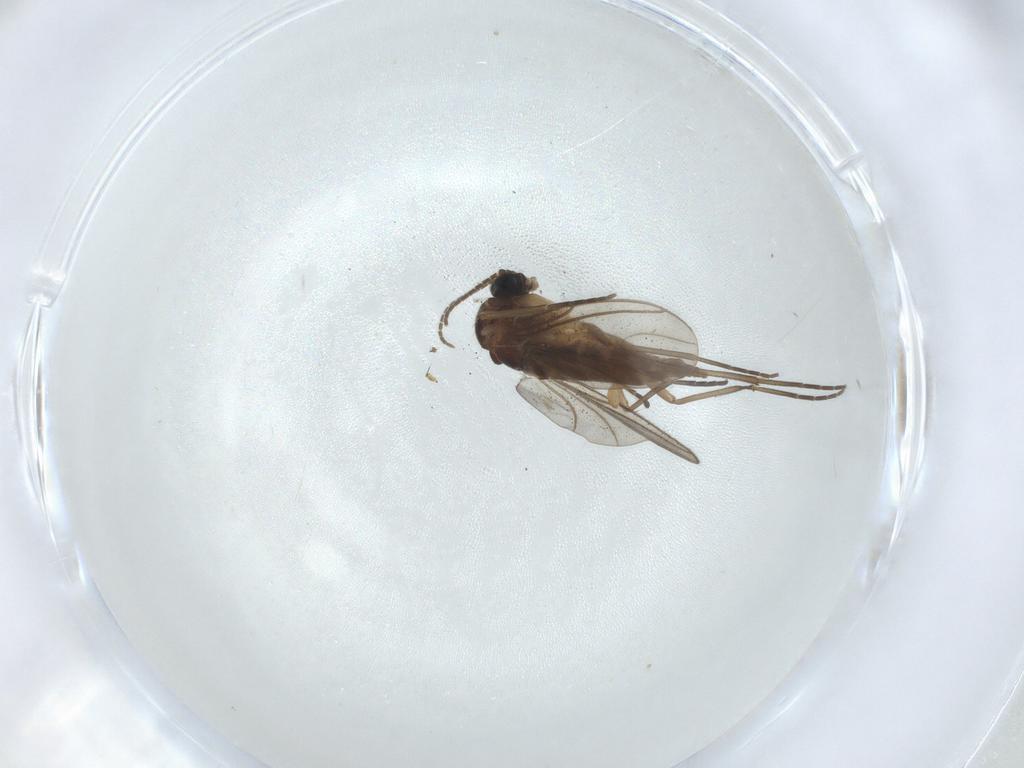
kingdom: Animalia
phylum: Arthropoda
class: Insecta
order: Diptera
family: Sciaridae
